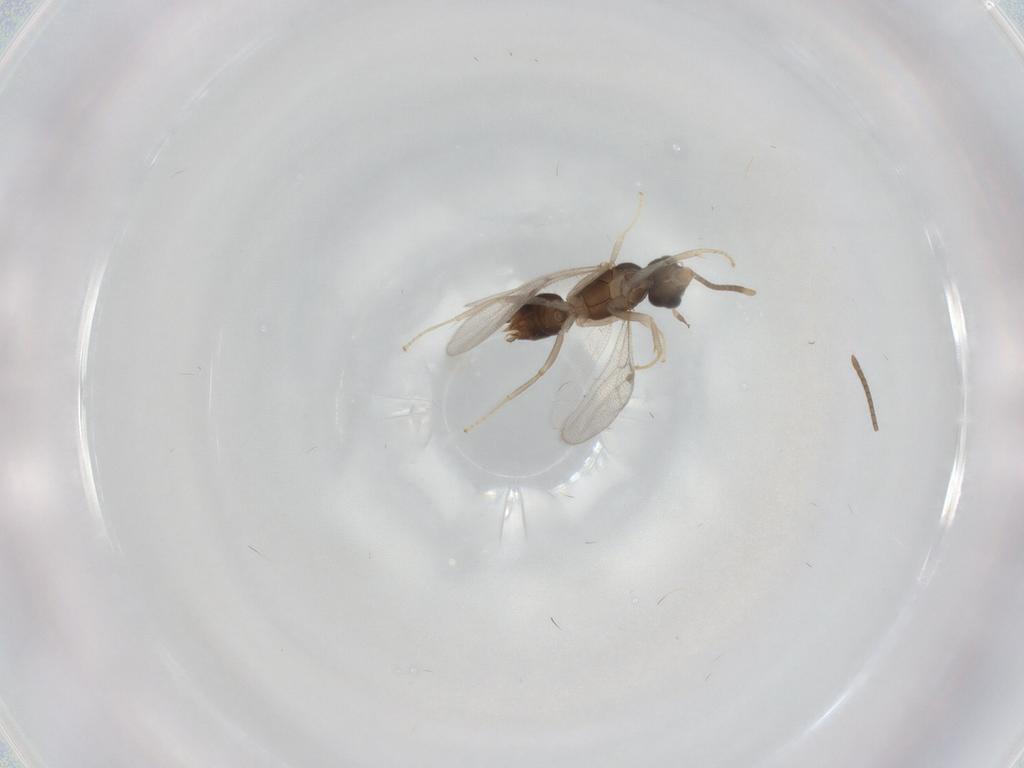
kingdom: Animalia
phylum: Arthropoda
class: Insecta
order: Hymenoptera
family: Formicidae
